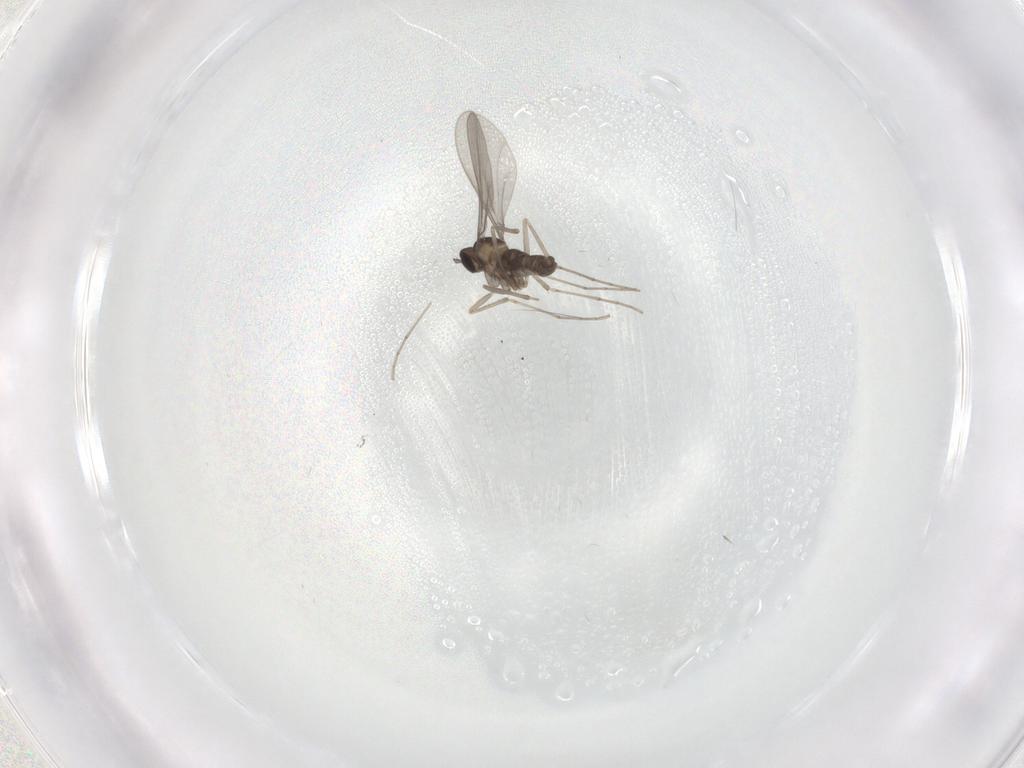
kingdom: Animalia
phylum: Arthropoda
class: Insecta
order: Diptera
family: Cecidomyiidae
